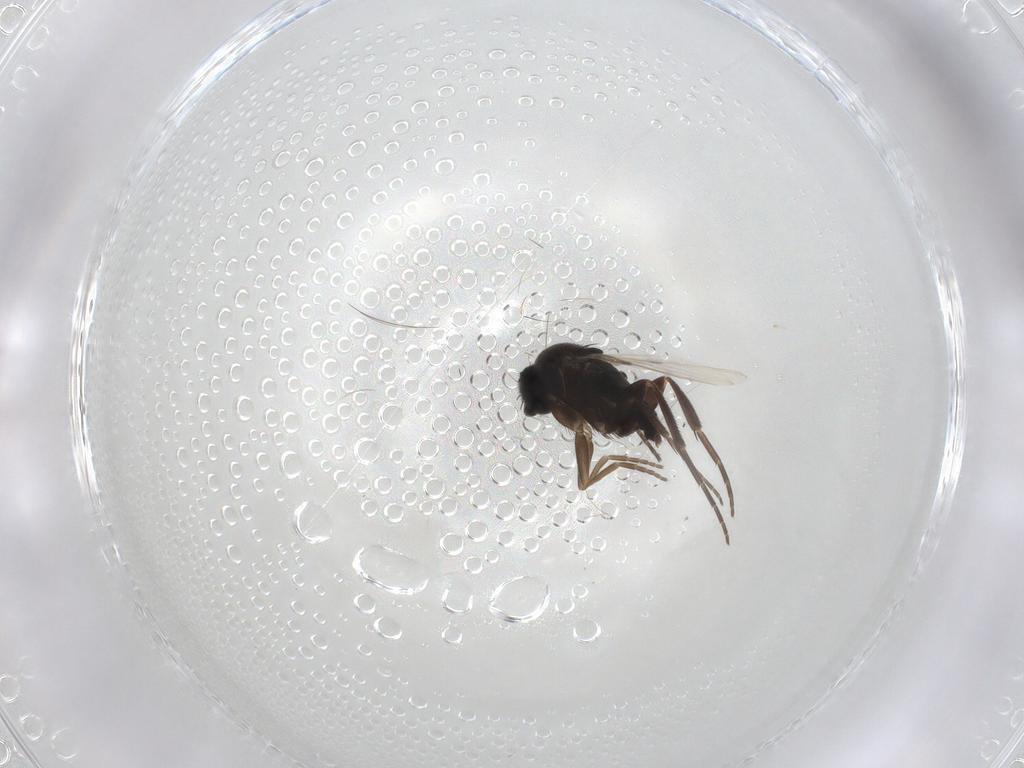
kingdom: Animalia
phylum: Arthropoda
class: Insecta
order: Diptera
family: Phoridae
